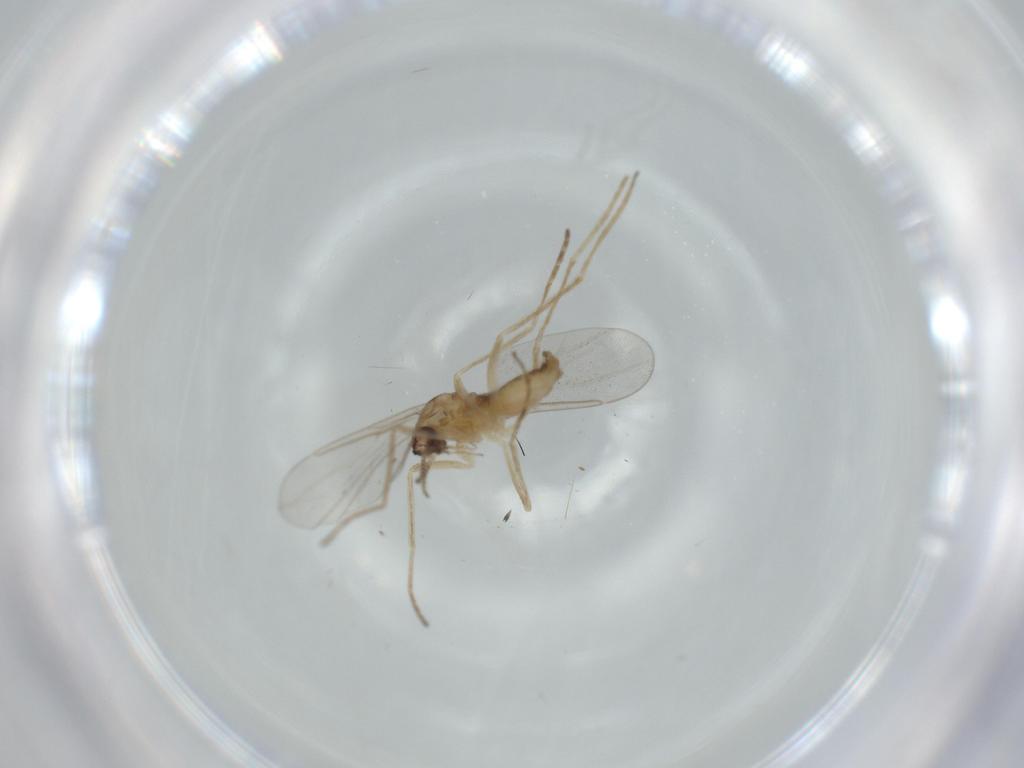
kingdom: Animalia
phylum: Arthropoda
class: Insecta
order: Diptera
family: Cecidomyiidae
